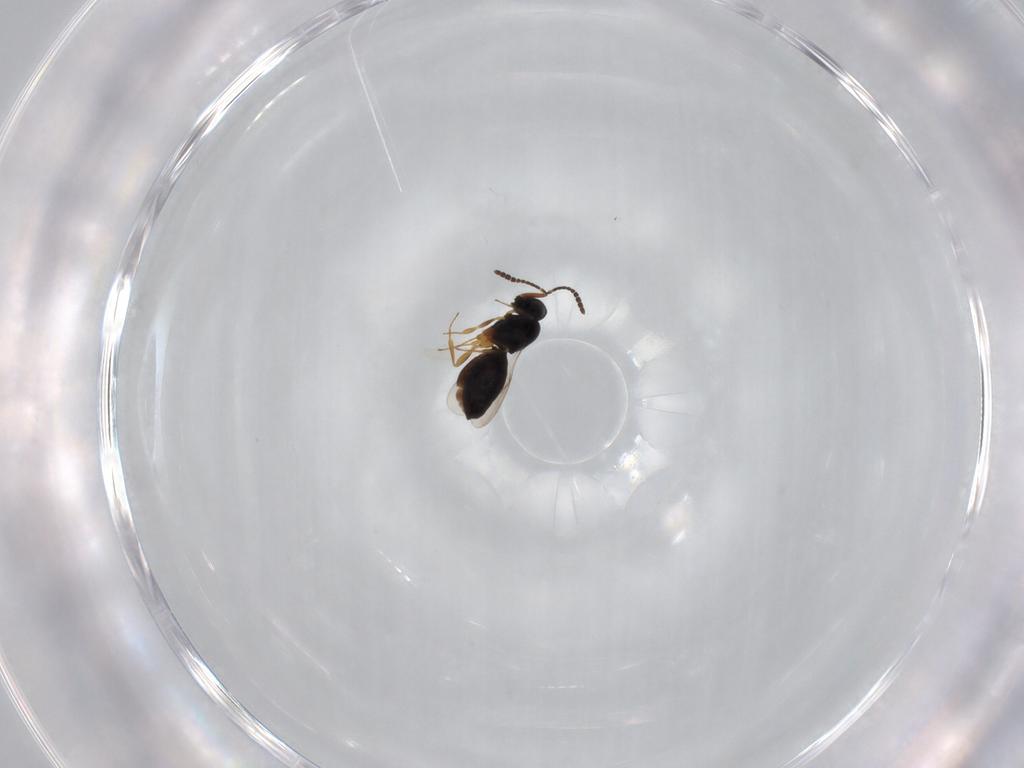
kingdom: Animalia
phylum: Arthropoda
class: Insecta
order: Hymenoptera
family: Scelionidae
